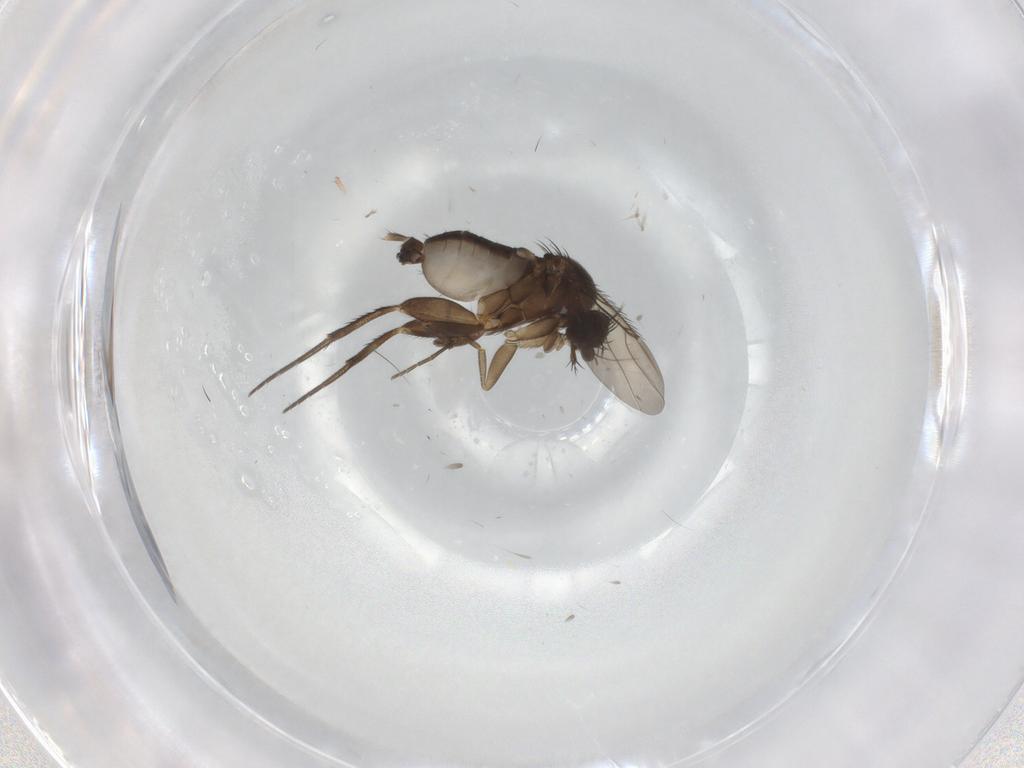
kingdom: Animalia
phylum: Arthropoda
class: Insecta
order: Diptera
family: Phoridae
